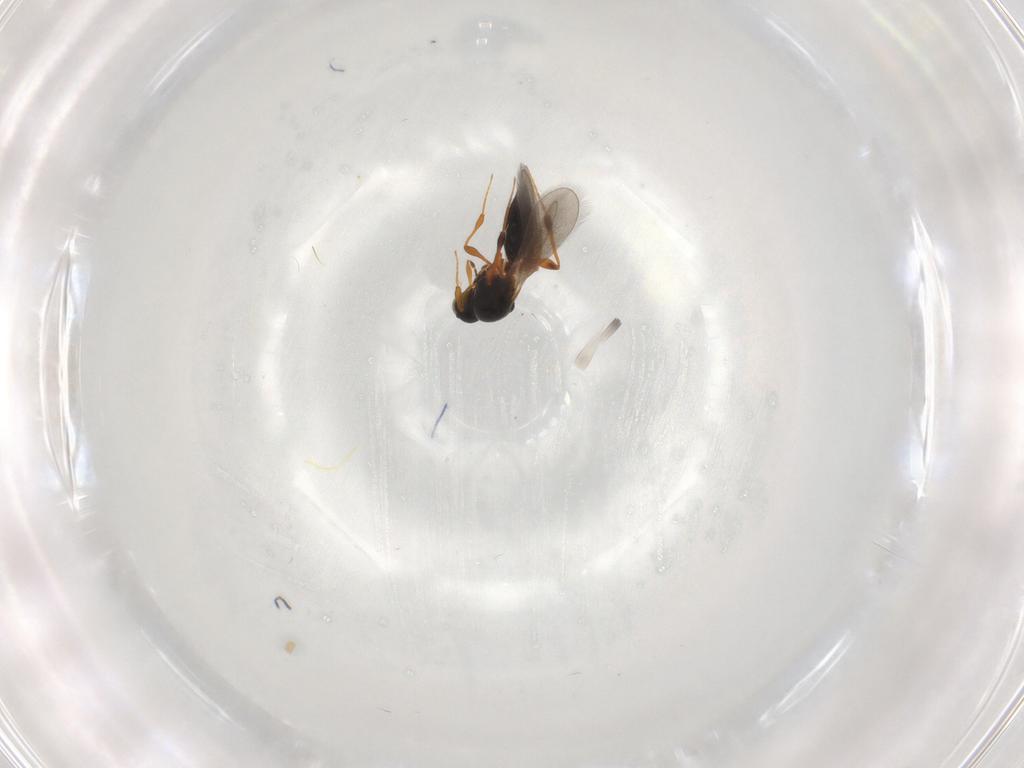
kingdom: Animalia
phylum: Arthropoda
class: Insecta
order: Hymenoptera
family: Platygastridae
